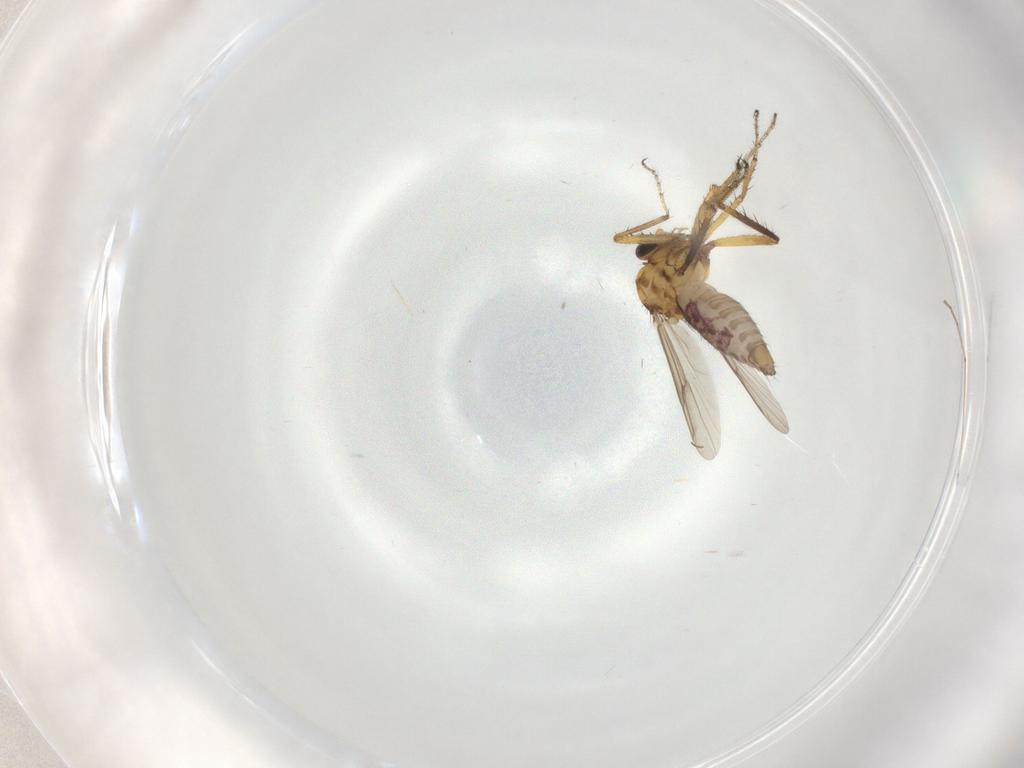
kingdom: Animalia
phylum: Arthropoda
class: Insecta
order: Diptera
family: Ceratopogonidae
